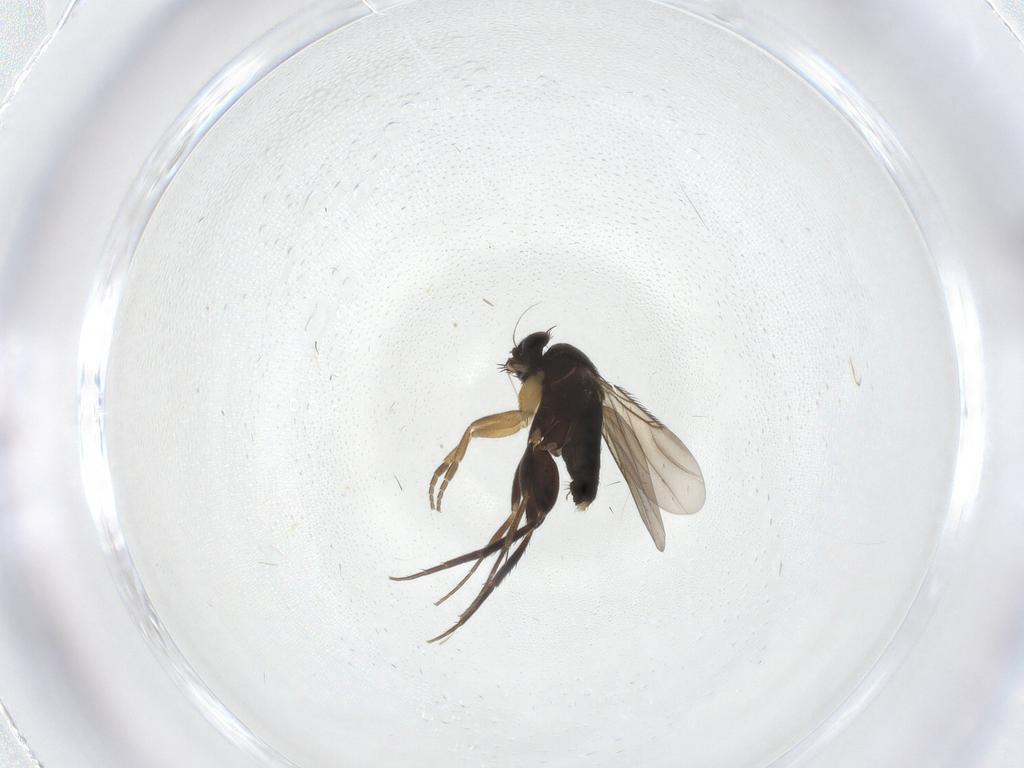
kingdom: Animalia
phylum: Arthropoda
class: Insecta
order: Diptera
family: Phoridae
